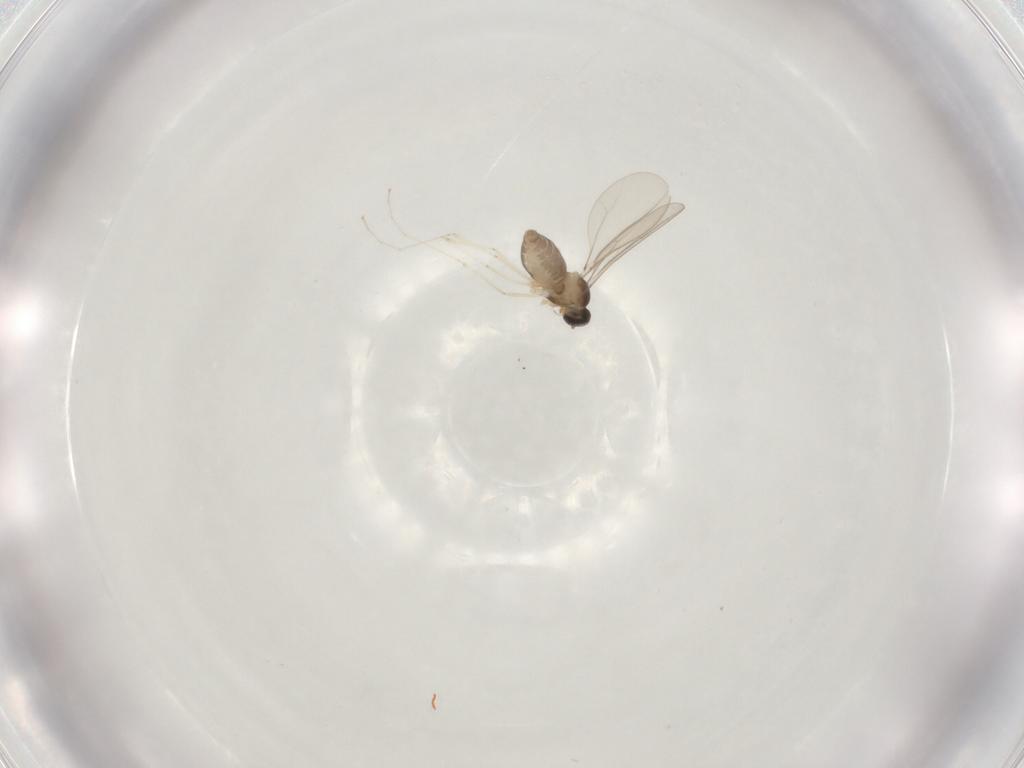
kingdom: Animalia
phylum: Arthropoda
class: Insecta
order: Diptera
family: Cecidomyiidae
